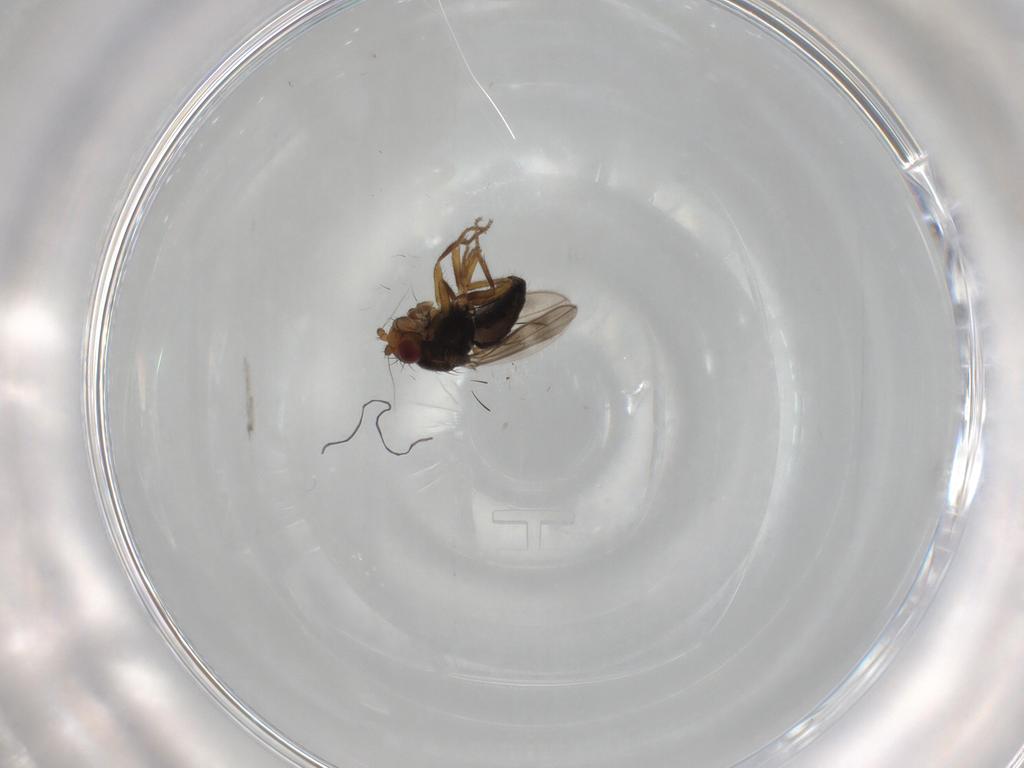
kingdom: Animalia
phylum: Arthropoda
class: Insecta
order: Diptera
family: Sphaeroceridae
